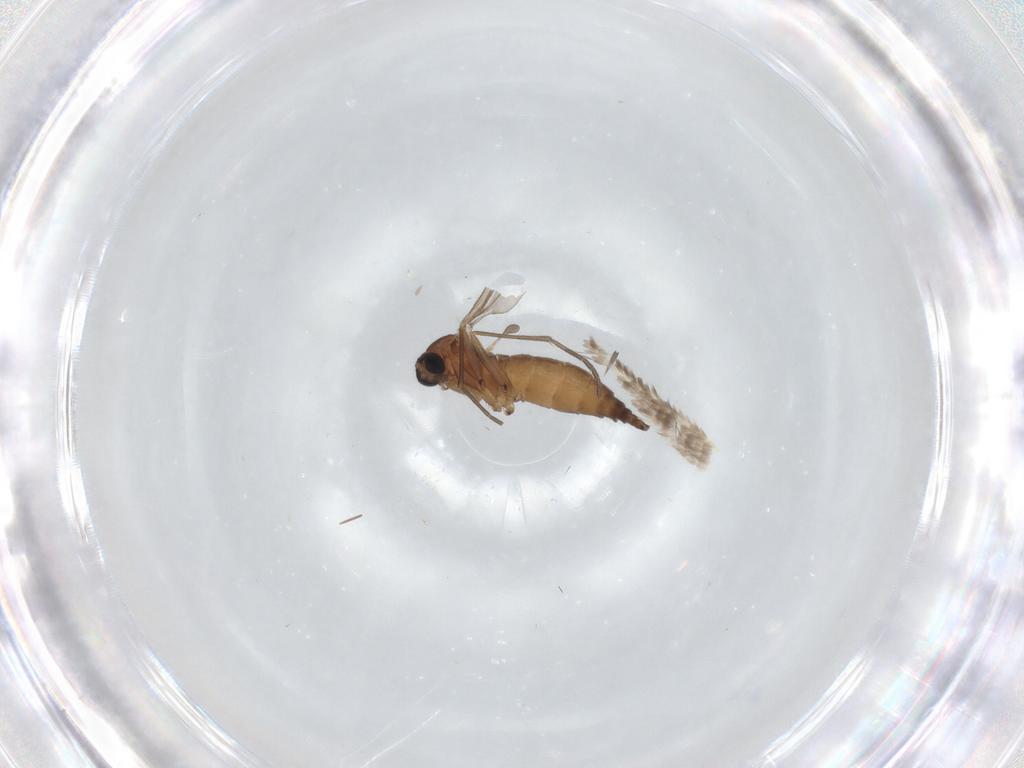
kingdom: Animalia
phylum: Arthropoda
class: Insecta
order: Diptera
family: Sciaridae
